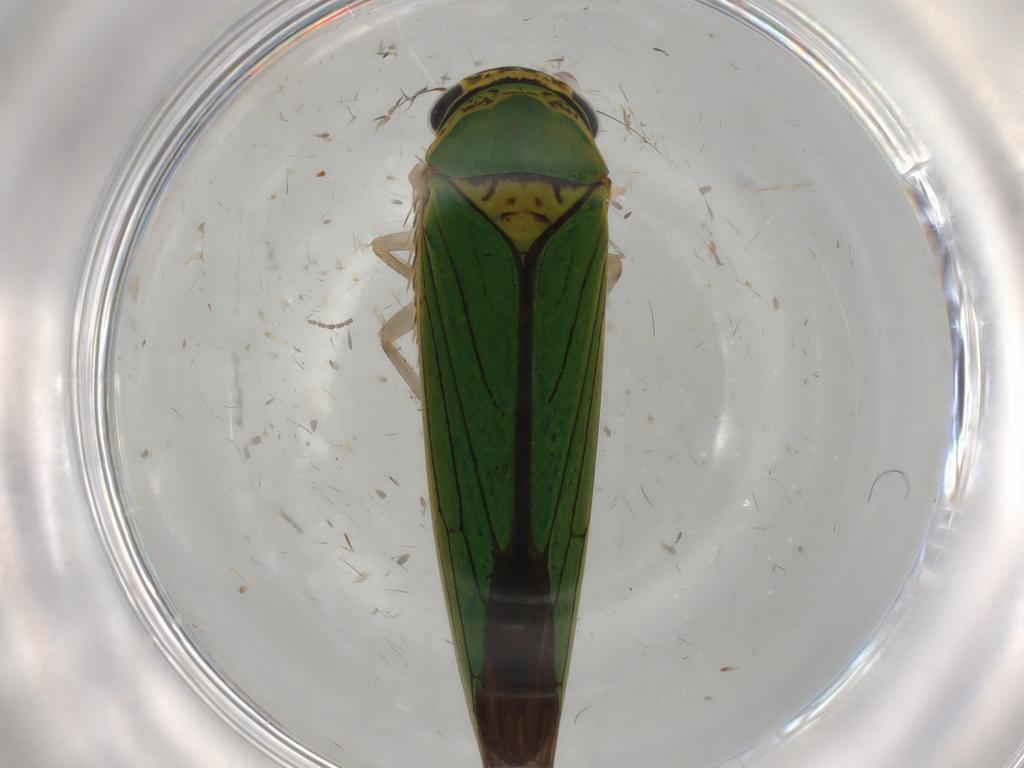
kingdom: Animalia
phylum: Arthropoda
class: Insecta
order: Hemiptera
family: Cicadellidae
